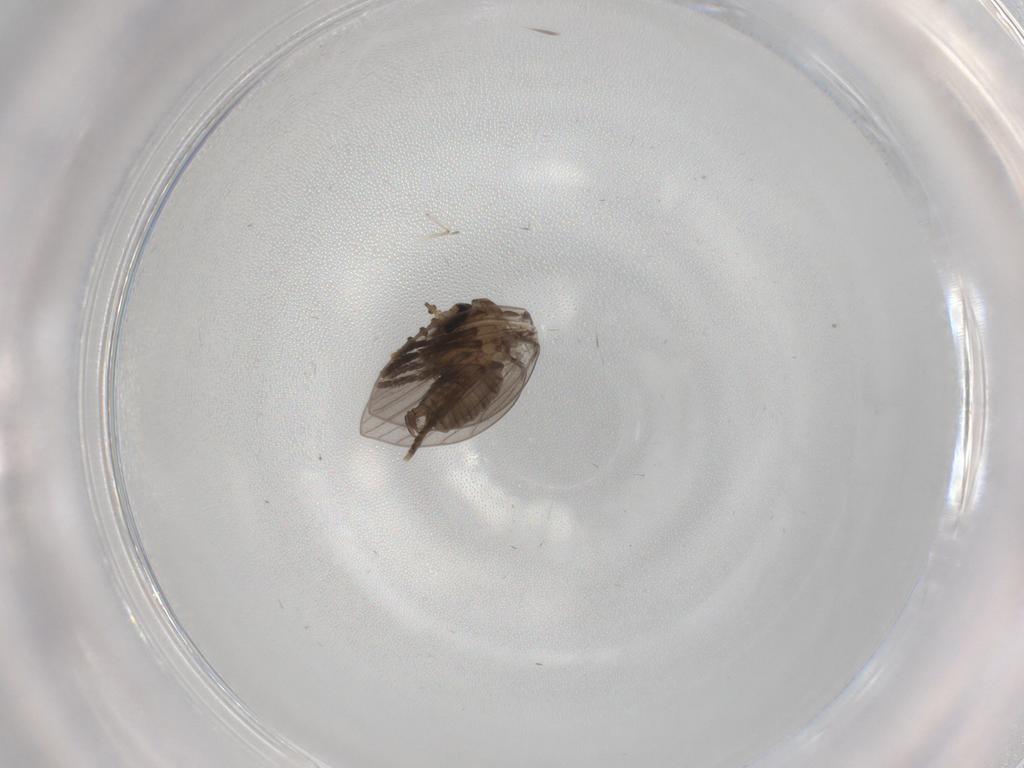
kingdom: Animalia
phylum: Arthropoda
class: Insecta
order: Diptera
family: Psychodidae
